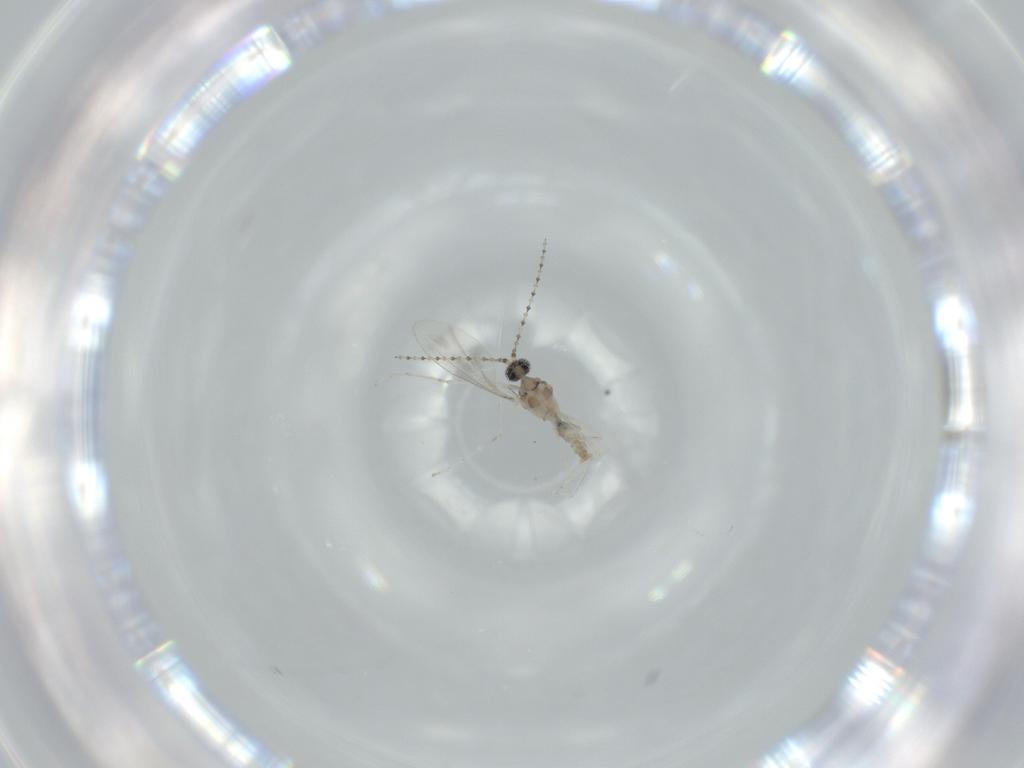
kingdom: Animalia
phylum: Arthropoda
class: Insecta
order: Diptera
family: Cecidomyiidae
